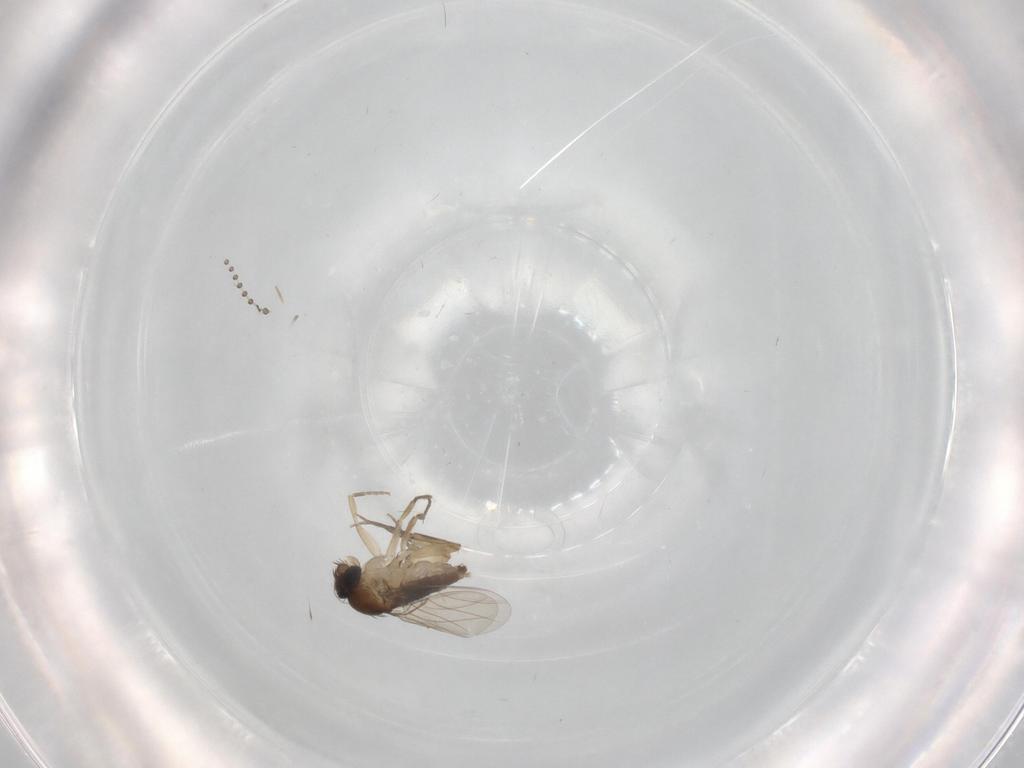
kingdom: Animalia
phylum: Arthropoda
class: Insecta
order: Diptera
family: Phoridae
